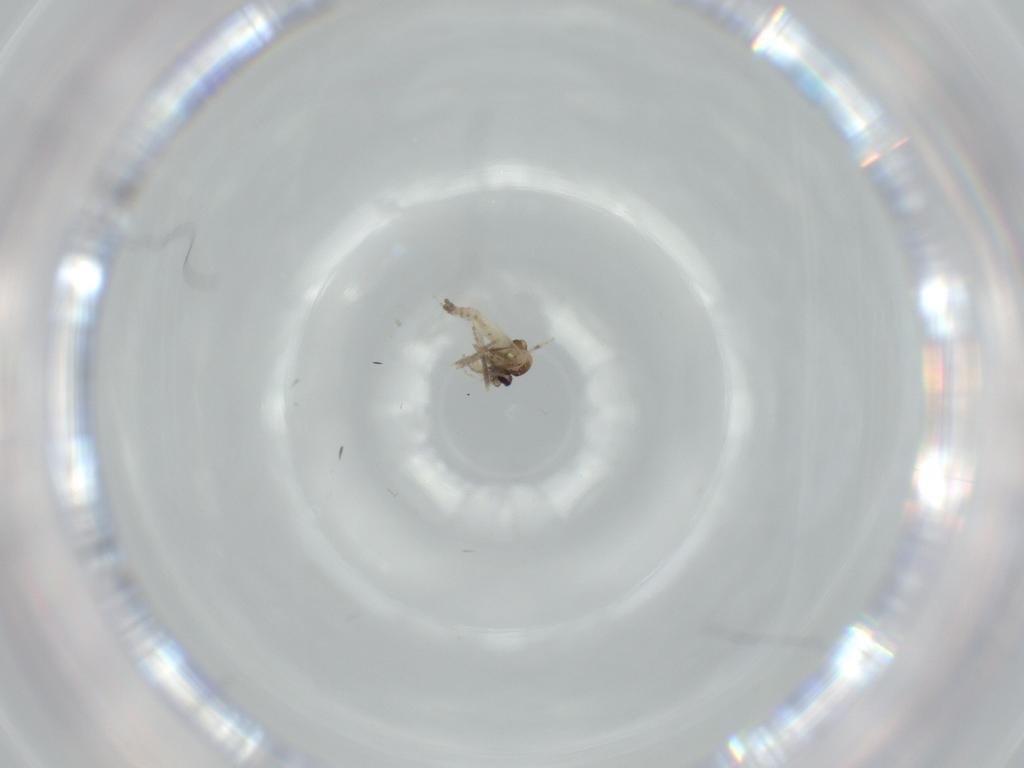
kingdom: Animalia
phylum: Arthropoda
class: Insecta
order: Diptera
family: Ceratopogonidae
